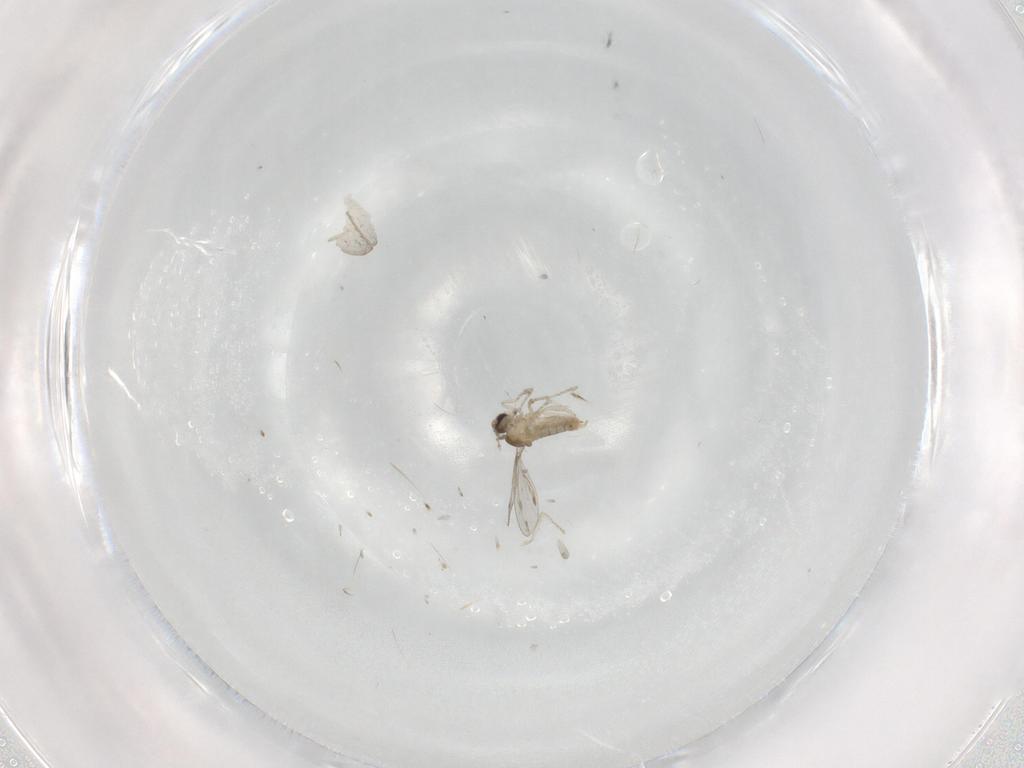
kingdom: Animalia
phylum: Arthropoda
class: Insecta
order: Diptera
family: Cecidomyiidae
